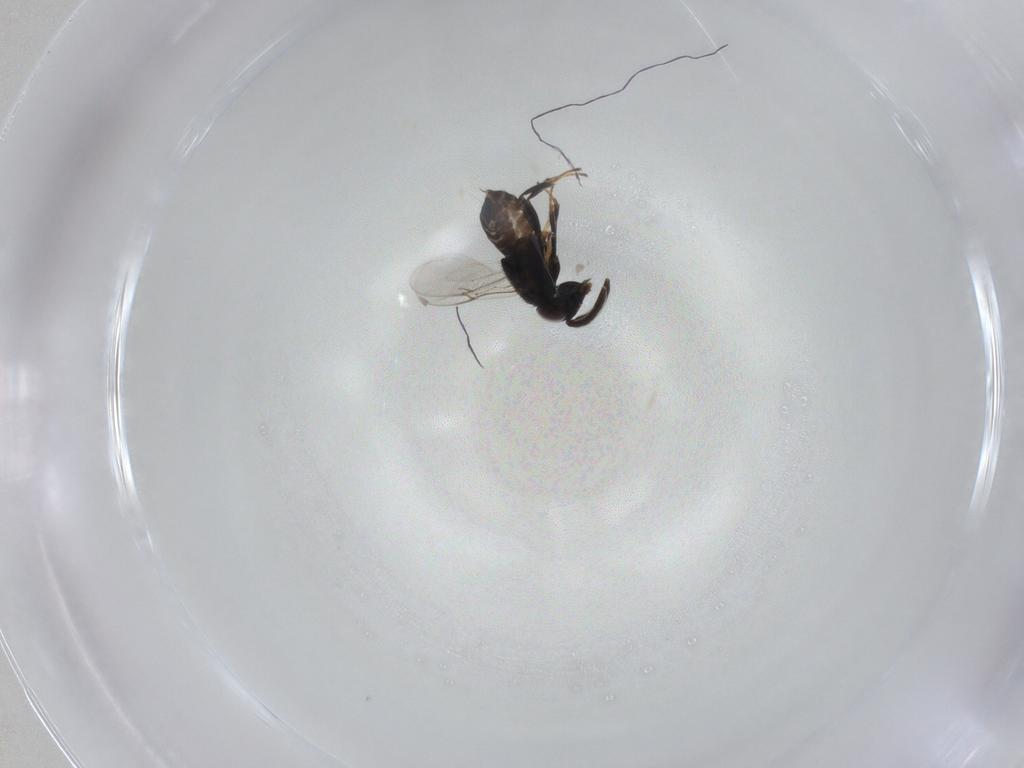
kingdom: Animalia
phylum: Arthropoda
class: Insecta
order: Hymenoptera
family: Encyrtidae
